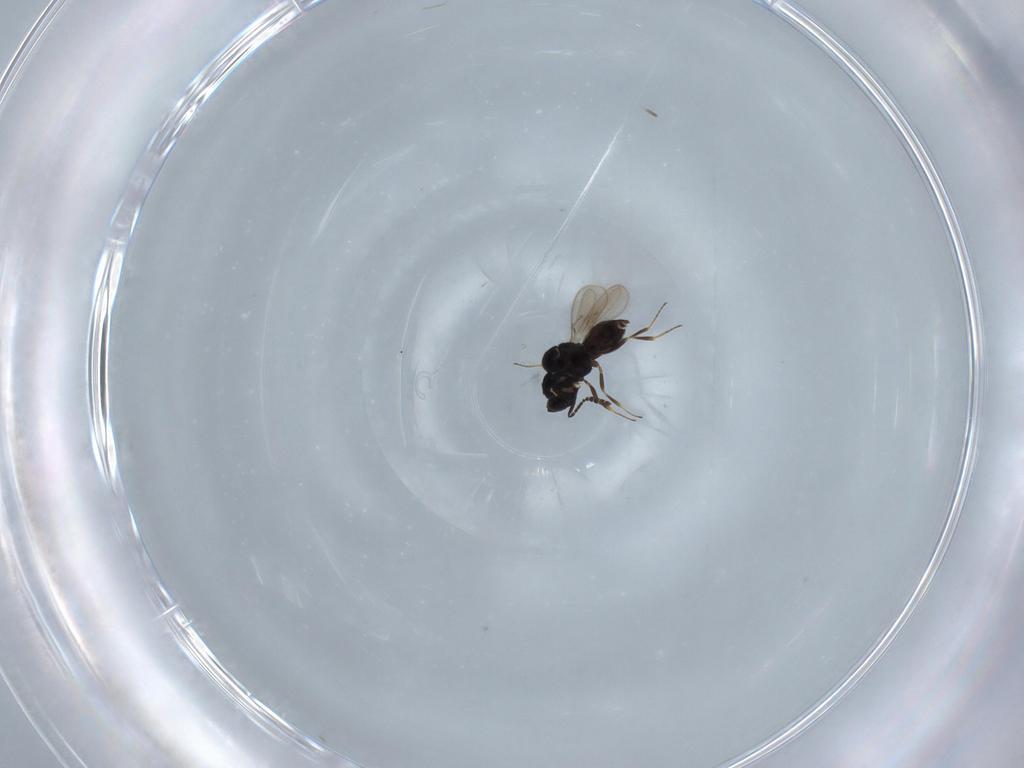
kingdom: Animalia
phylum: Arthropoda
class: Insecta
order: Hymenoptera
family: Scelionidae
